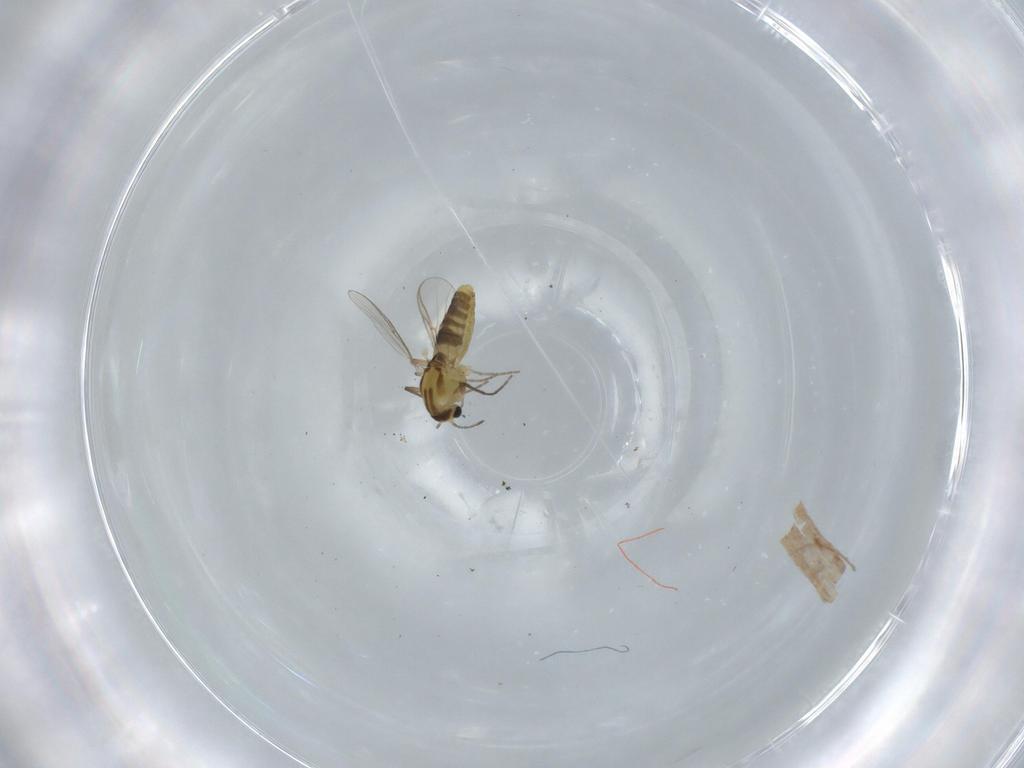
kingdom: Animalia
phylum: Arthropoda
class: Insecta
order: Diptera
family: Chironomidae
